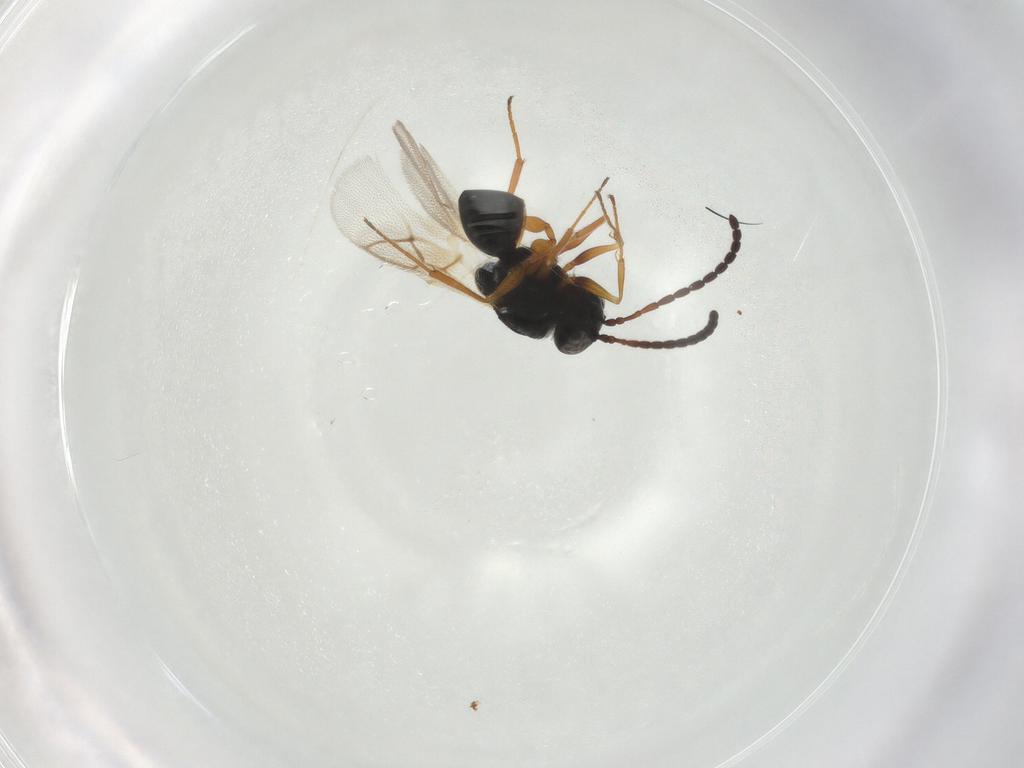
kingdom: Animalia
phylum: Arthropoda
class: Insecta
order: Hymenoptera
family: Figitidae
